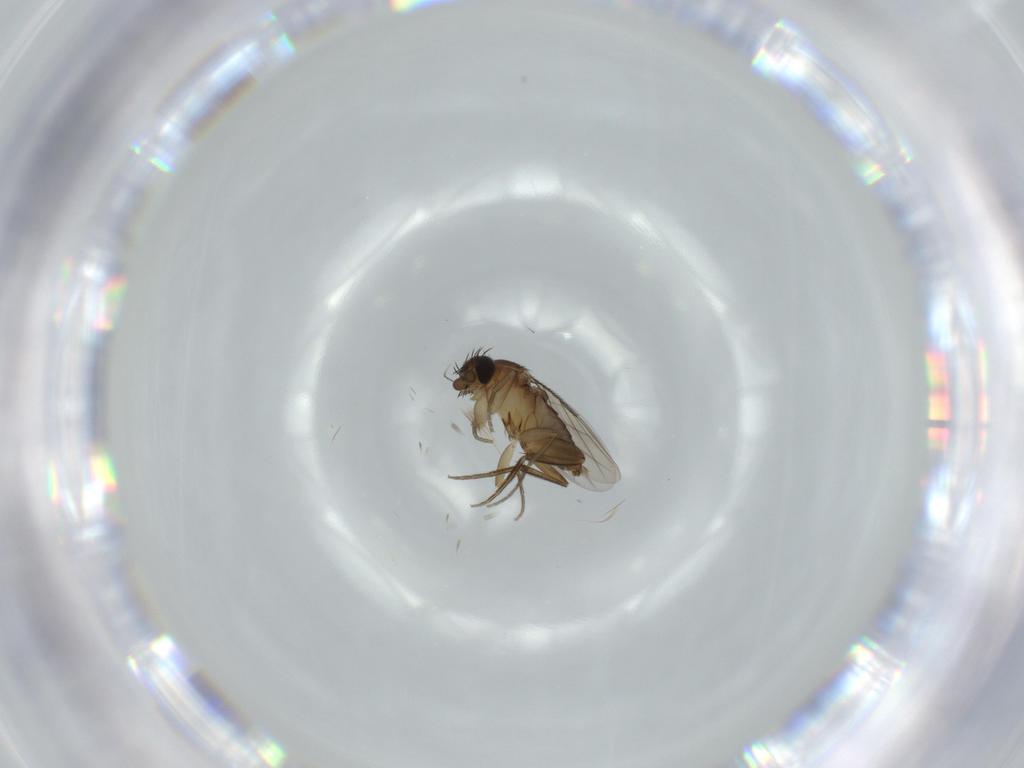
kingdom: Animalia
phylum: Arthropoda
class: Insecta
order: Diptera
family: Phoridae
